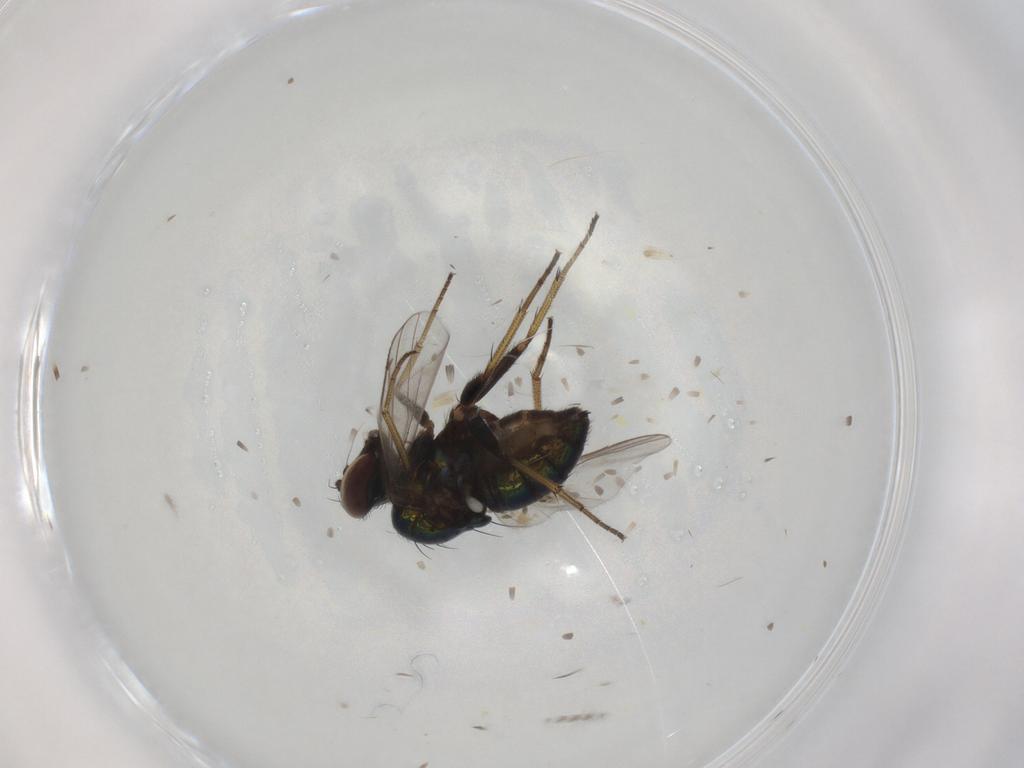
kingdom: Animalia
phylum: Arthropoda
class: Insecta
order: Diptera
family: Dolichopodidae
